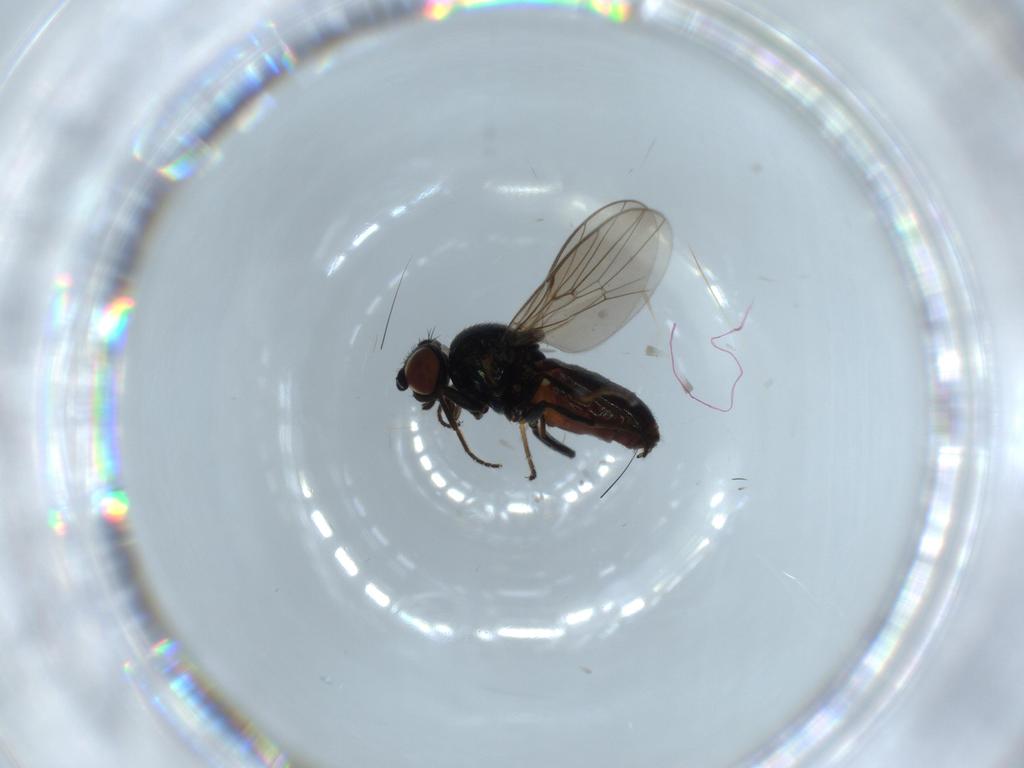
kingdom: Animalia
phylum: Arthropoda
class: Insecta
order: Diptera
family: Chloropidae
